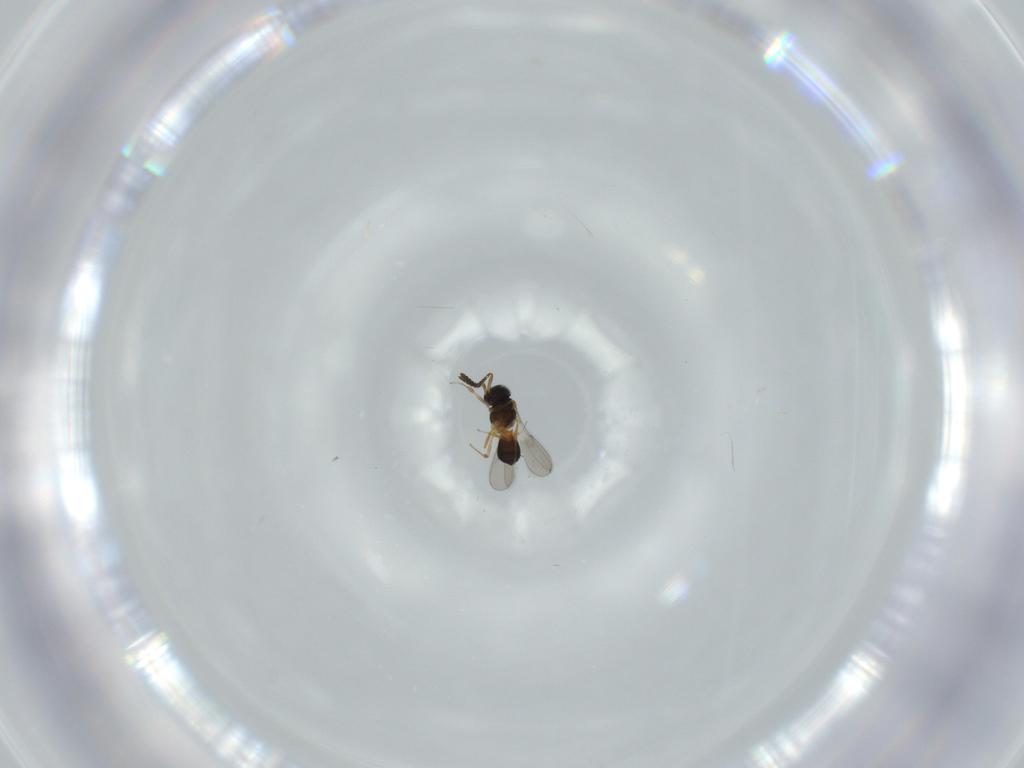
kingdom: Animalia
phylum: Arthropoda
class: Insecta
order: Hymenoptera
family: Scelionidae
